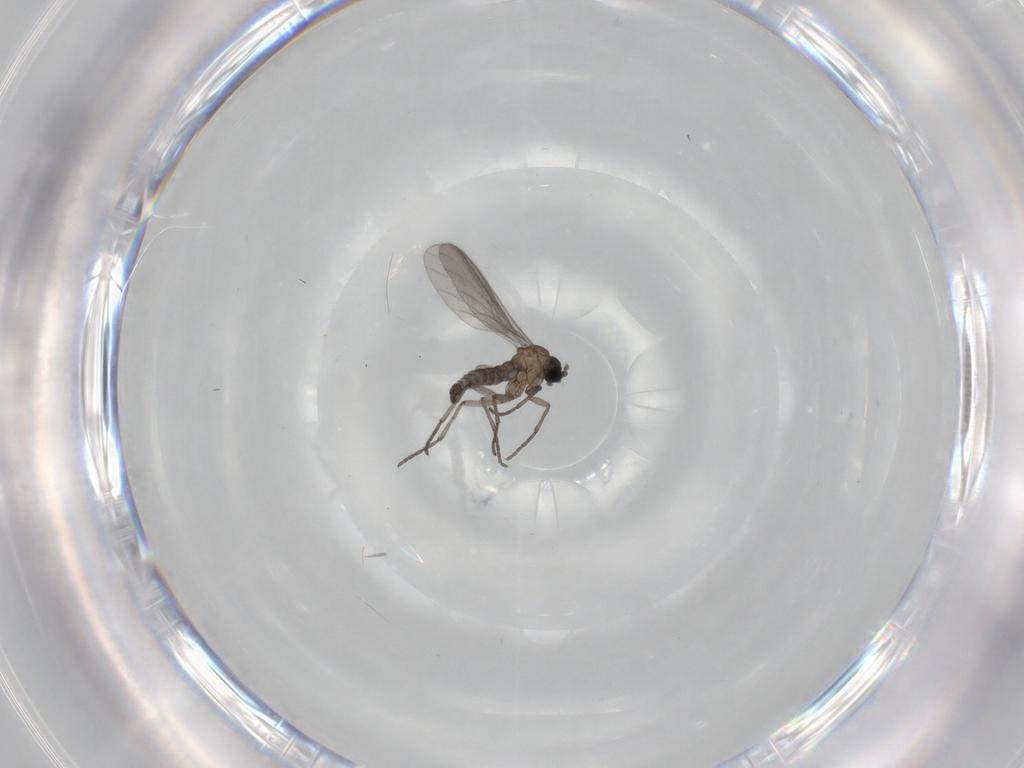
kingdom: Animalia
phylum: Arthropoda
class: Insecta
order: Diptera
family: Sciaridae
